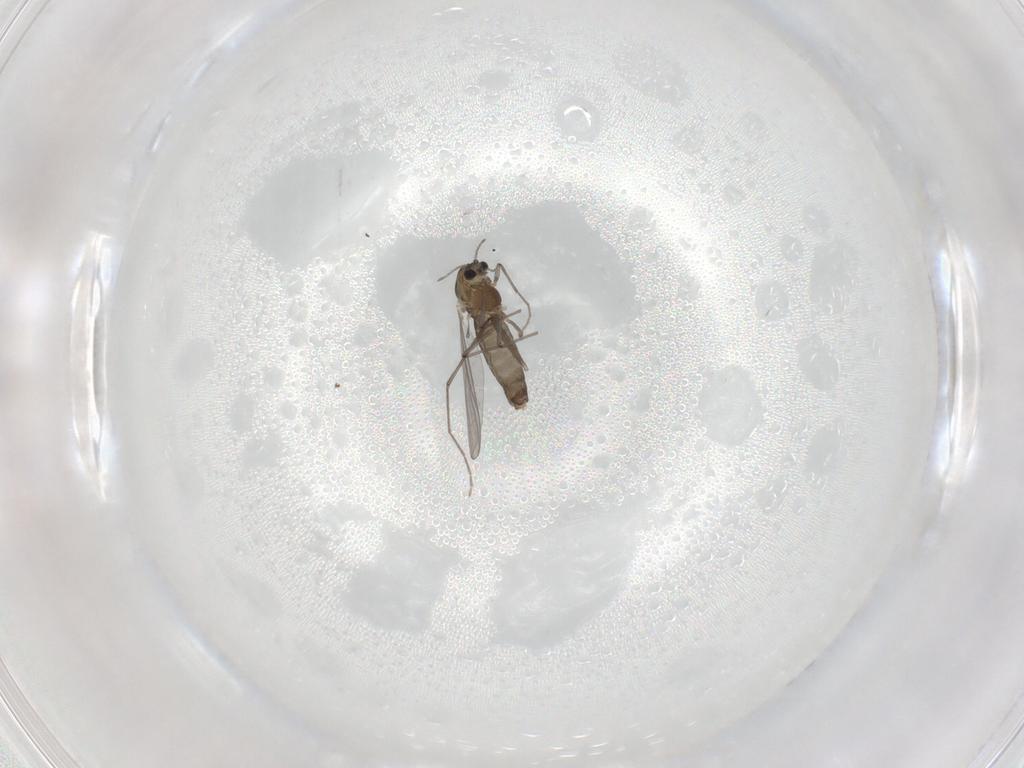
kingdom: Animalia
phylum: Arthropoda
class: Insecta
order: Diptera
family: Chironomidae
